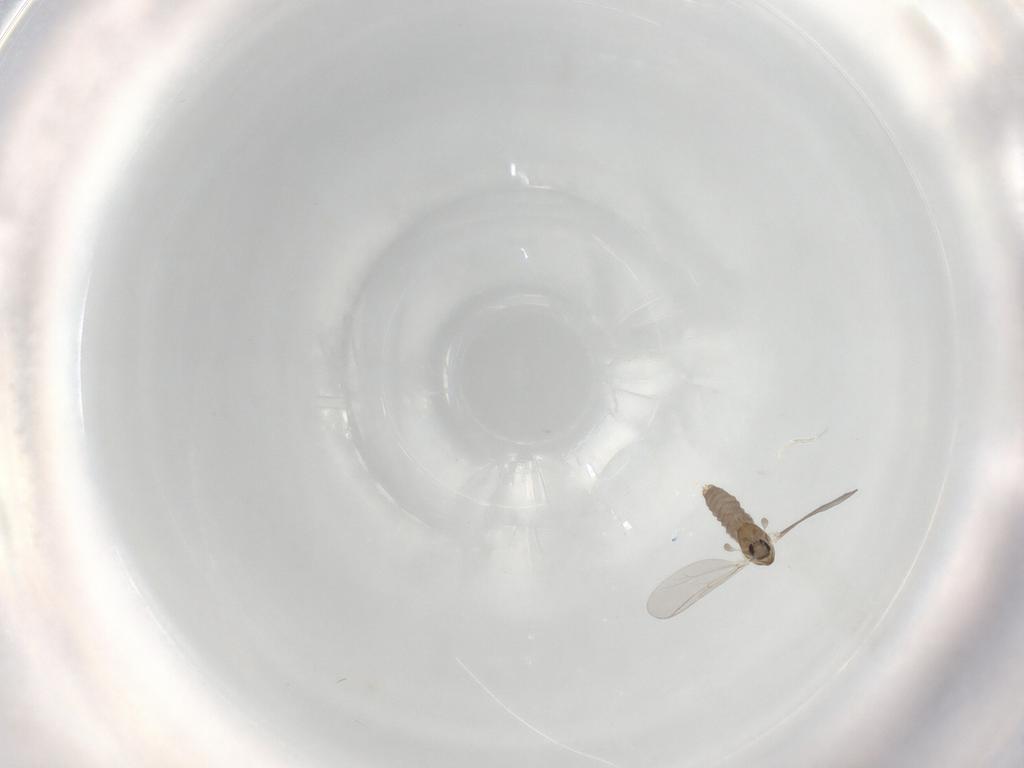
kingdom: Animalia
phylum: Arthropoda
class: Insecta
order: Diptera
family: Chironomidae
